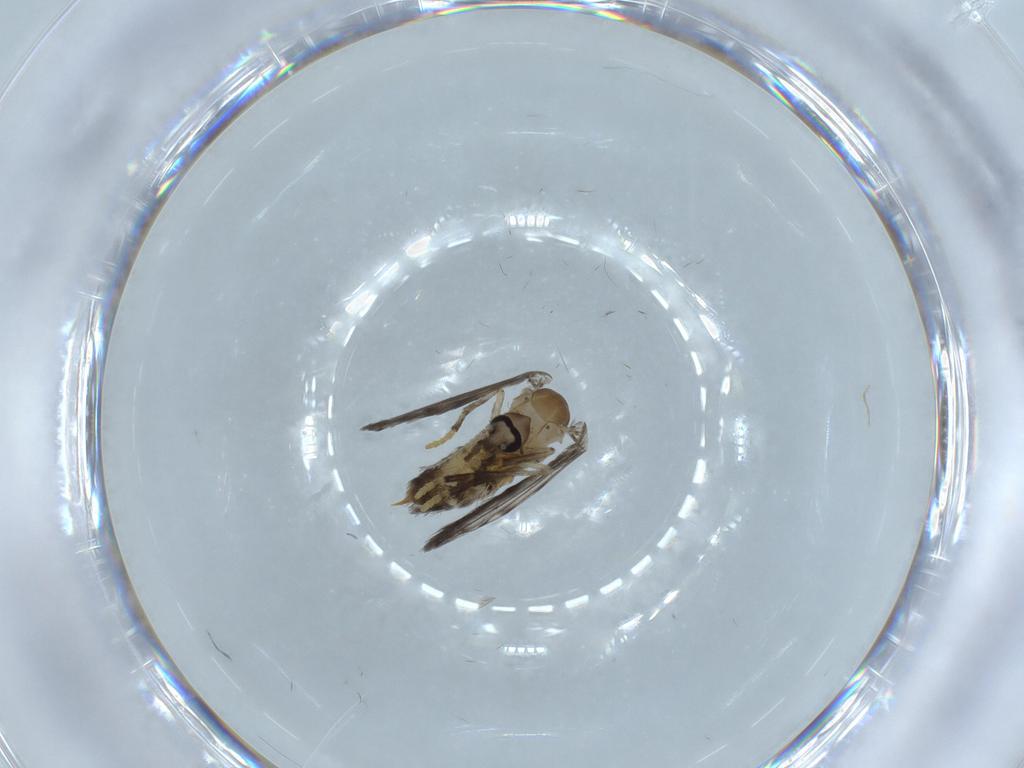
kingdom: Animalia
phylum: Arthropoda
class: Insecta
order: Diptera
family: Psychodidae
